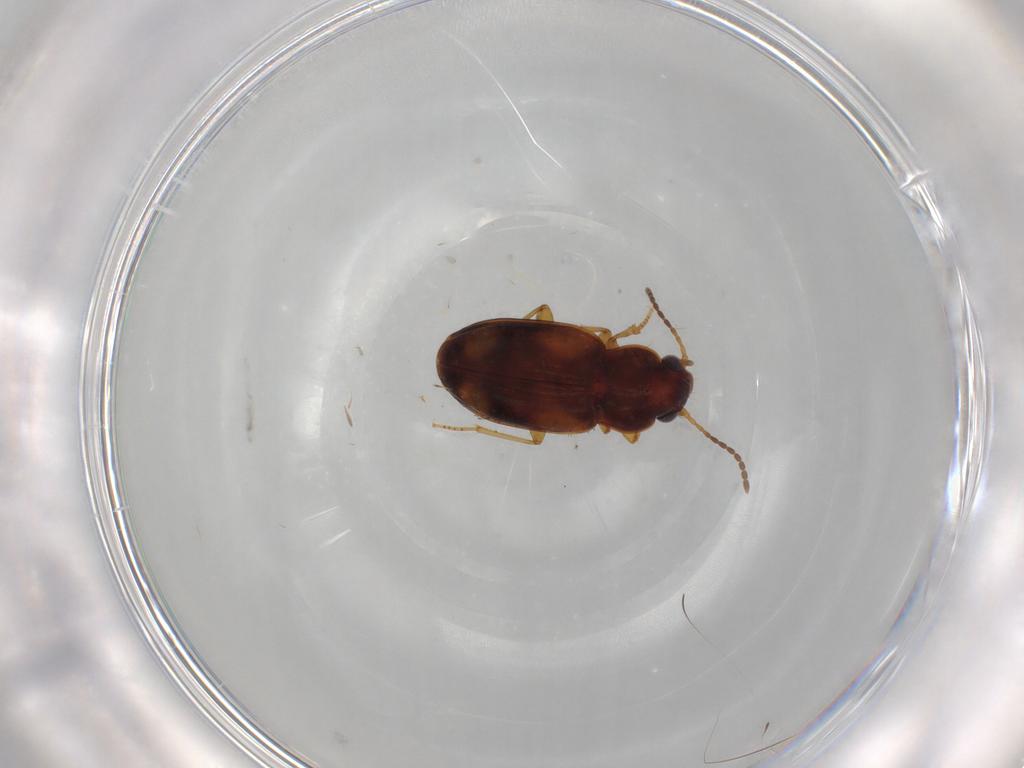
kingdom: Animalia
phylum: Arthropoda
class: Insecta
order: Coleoptera
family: Carabidae
